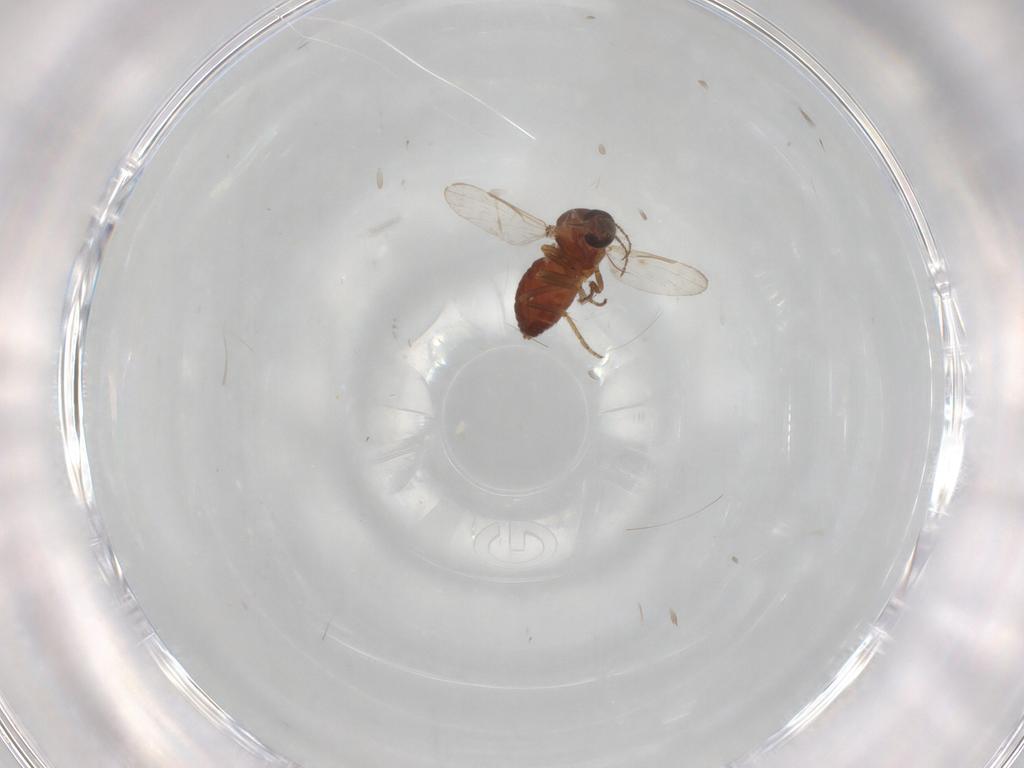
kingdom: Animalia
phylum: Arthropoda
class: Insecta
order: Diptera
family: Ceratopogonidae
